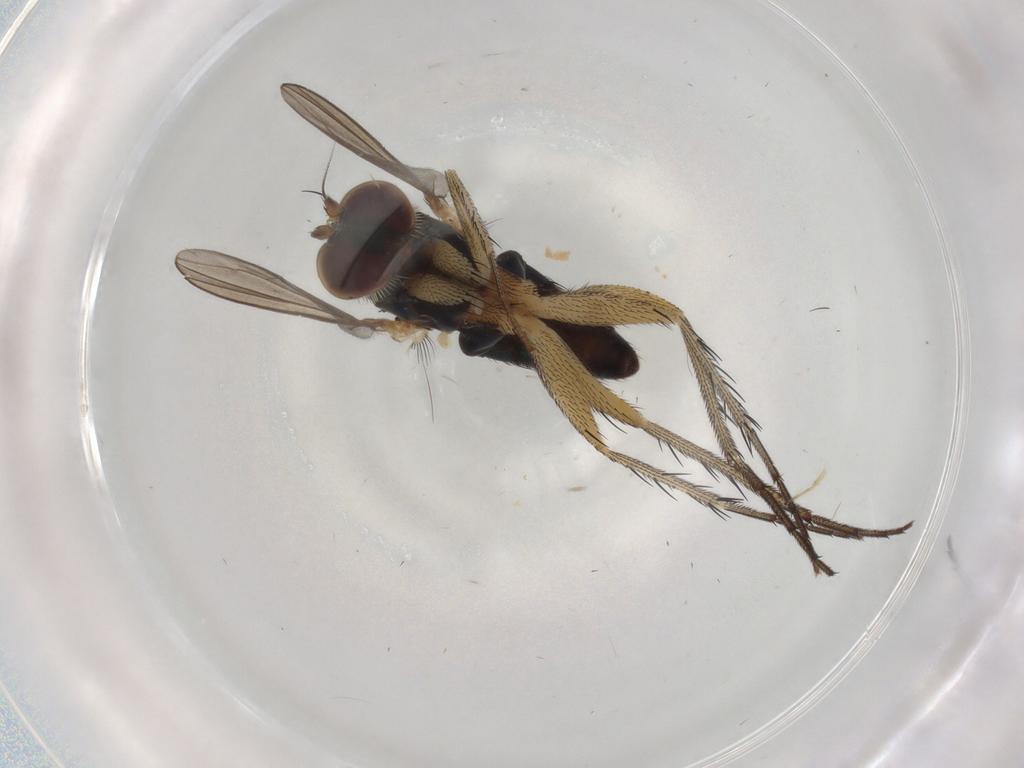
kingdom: Animalia
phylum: Arthropoda
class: Insecta
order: Diptera
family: Dolichopodidae
